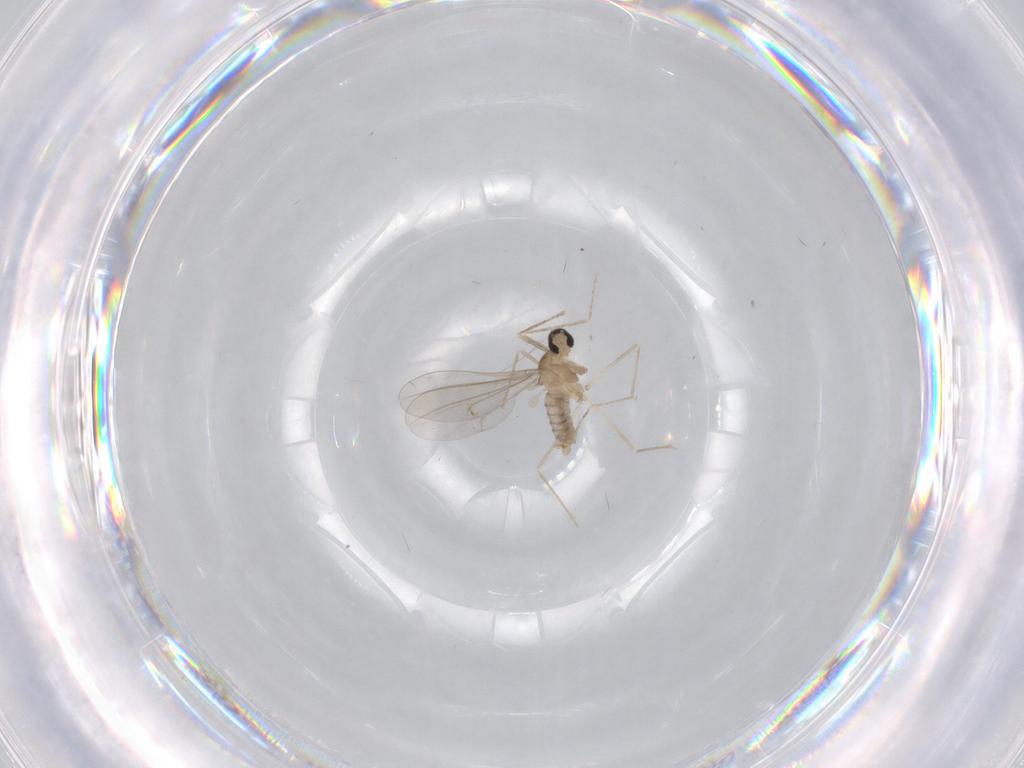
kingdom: Animalia
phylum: Arthropoda
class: Insecta
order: Diptera
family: Cecidomyiidae
